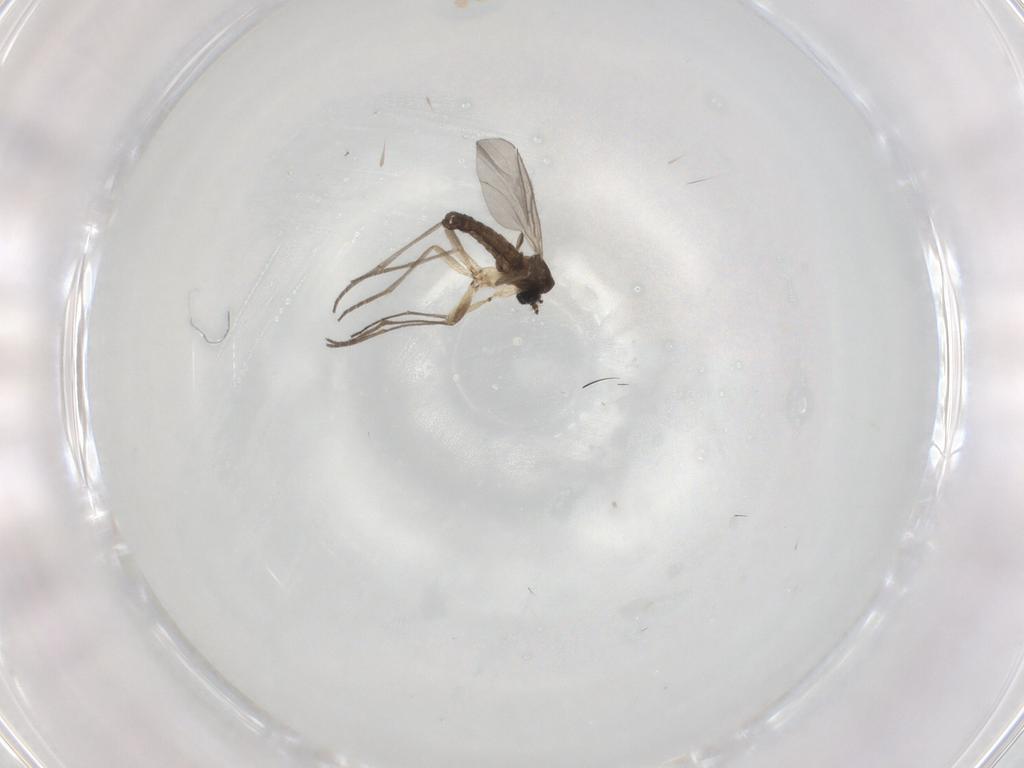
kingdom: Animalia
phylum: Arthropoda
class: Insecta
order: Diptera
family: Sciaridae
